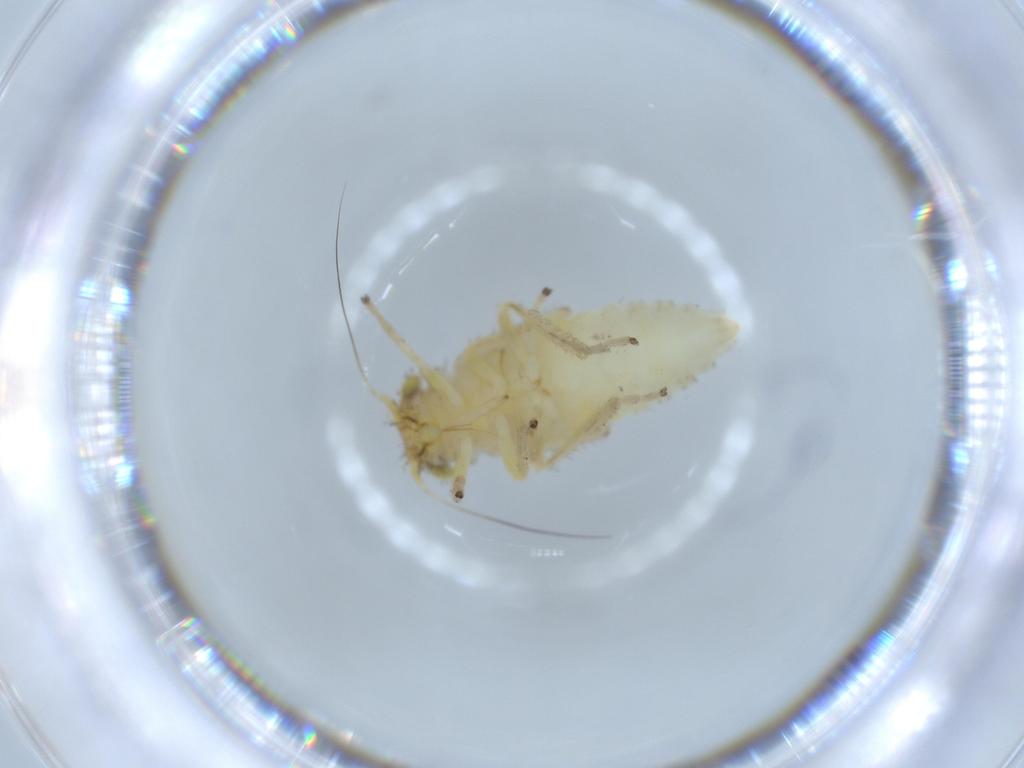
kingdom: Animalia
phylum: Arthropoda
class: Insecta
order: Hemiptera
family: Cicadellidae
